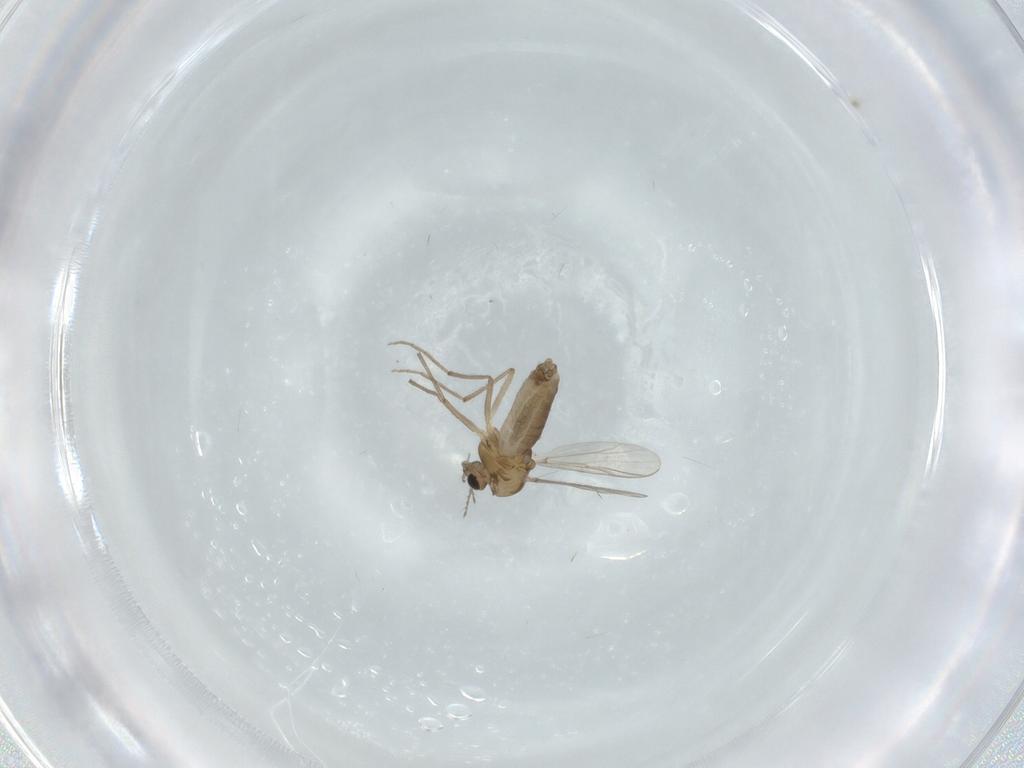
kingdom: Animalia
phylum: Arthropoda
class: Insecta
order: Diptera
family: Chironomidae
